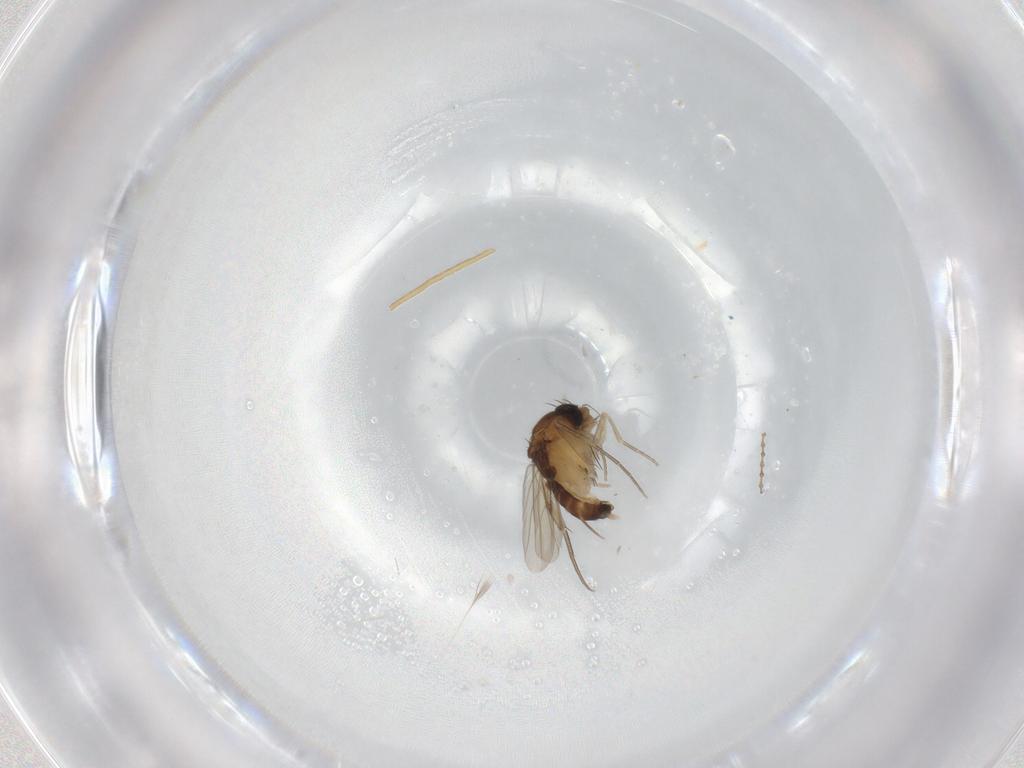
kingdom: Animalia
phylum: Arthropoda
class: Insecta
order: Diptera
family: Phoridae
